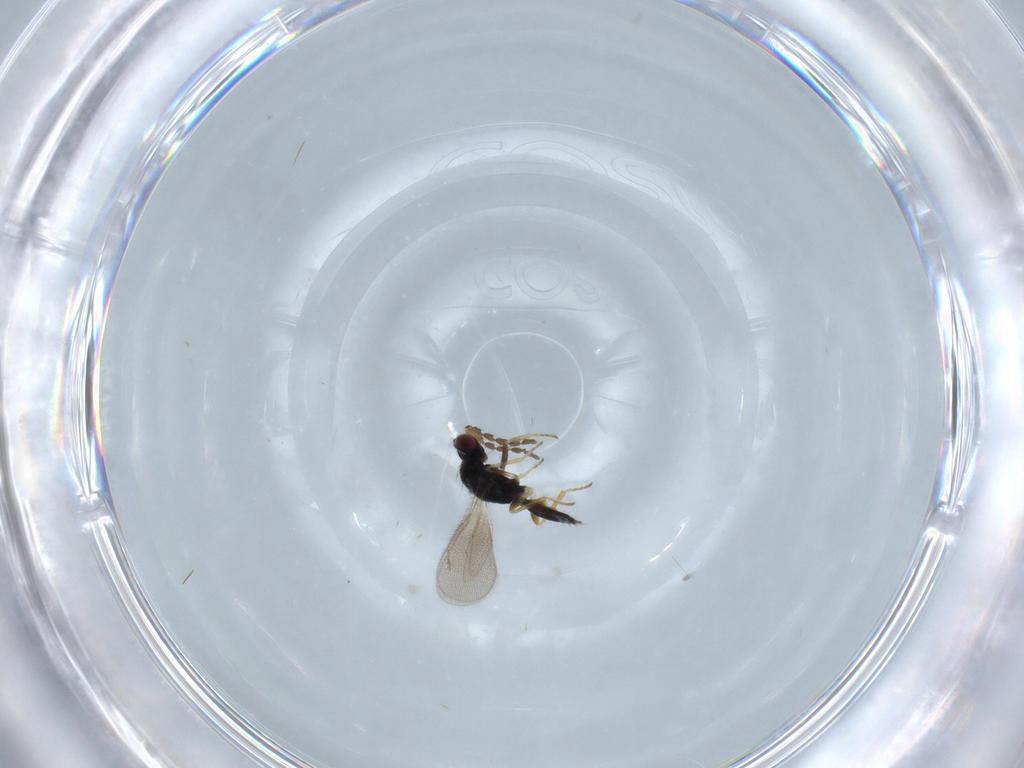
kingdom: Animalia
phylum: Arthropoda
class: Insecta
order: Hymenoptera
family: Eulophidae
